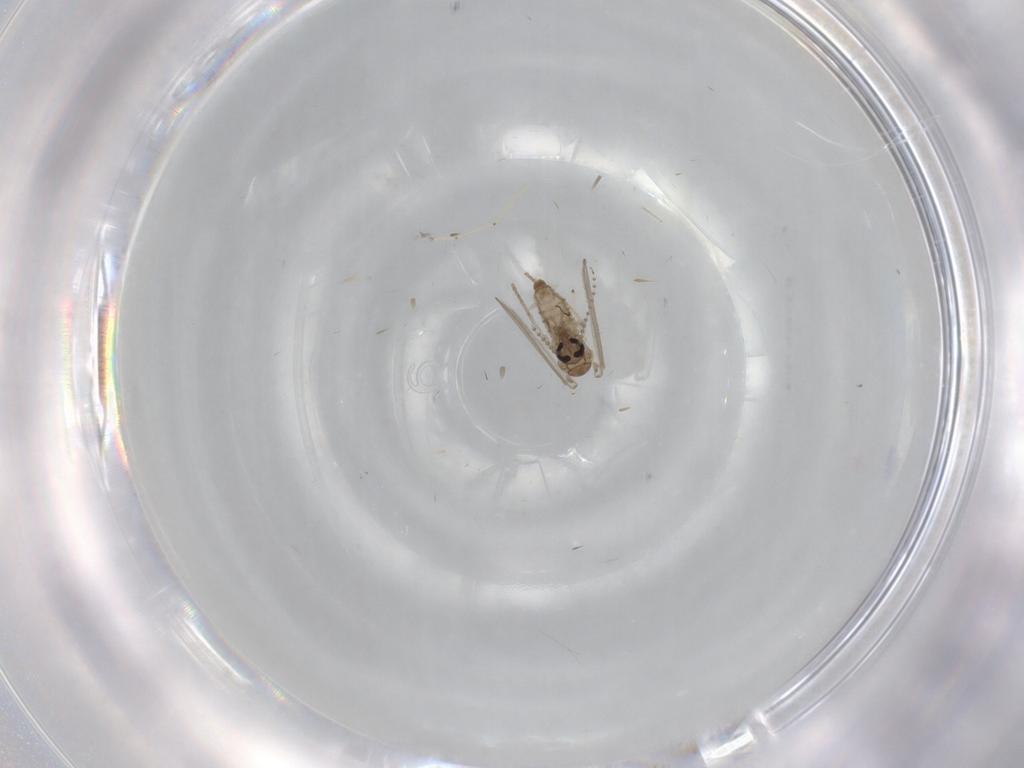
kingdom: Animalia
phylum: Arthropoda
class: Insecta
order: Diptera
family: Cecidomyiidae
